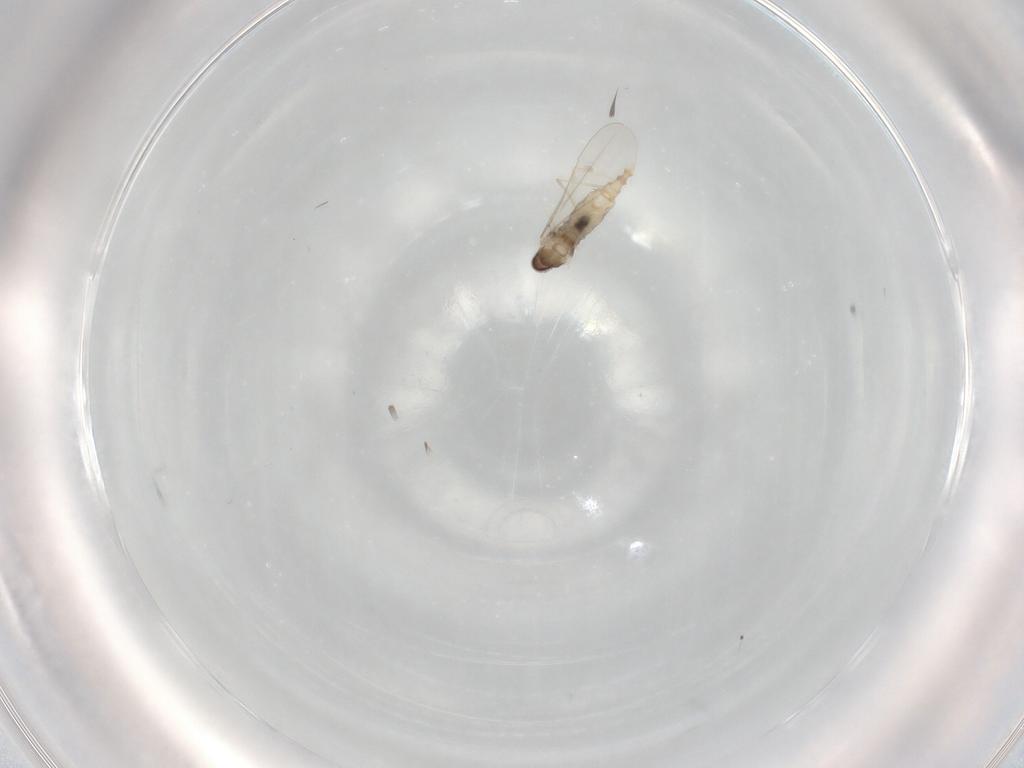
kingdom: Animalia
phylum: Arthropoda
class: Insecta
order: Diptera
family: Cecidomyiidae
